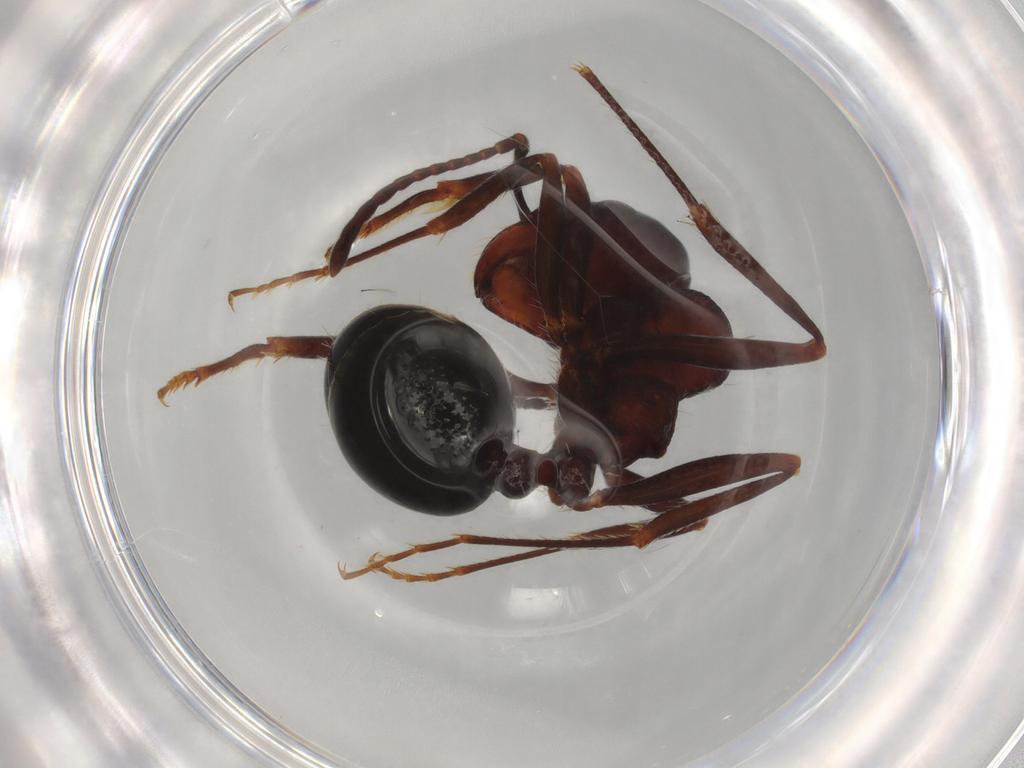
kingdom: Animalia
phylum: Arthropoda
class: Insecta
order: Hymenoptera
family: Formicidae
